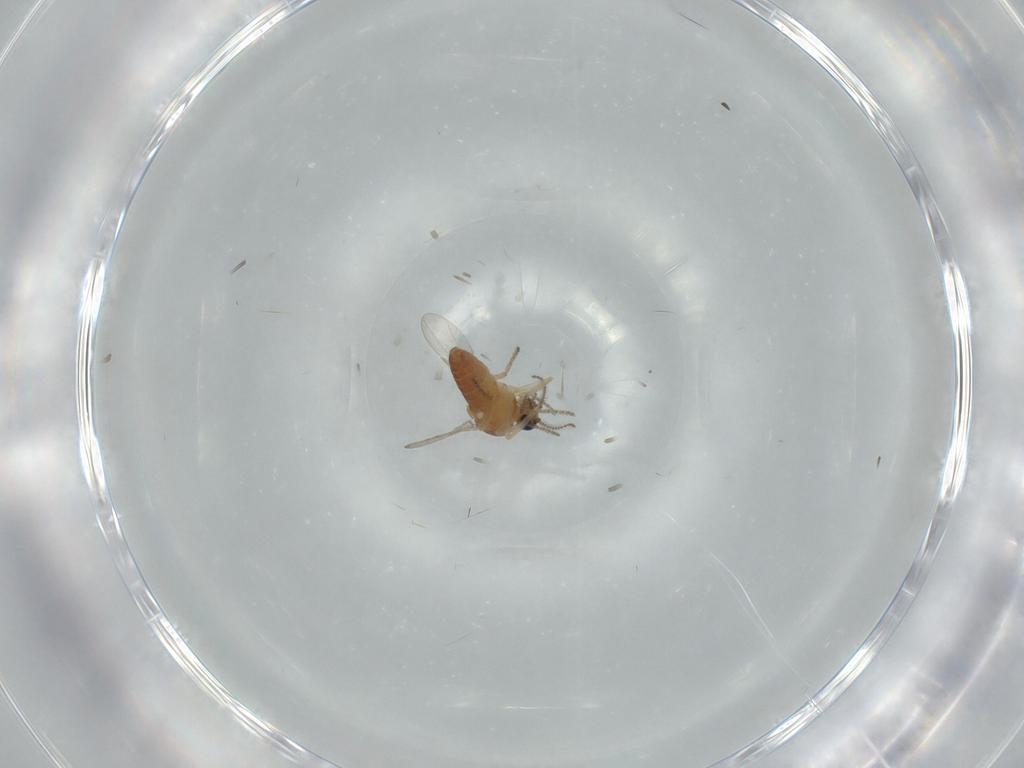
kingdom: Animalia
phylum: Arthropoda
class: Insecta
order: Diptera
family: Ceratopogonidae
